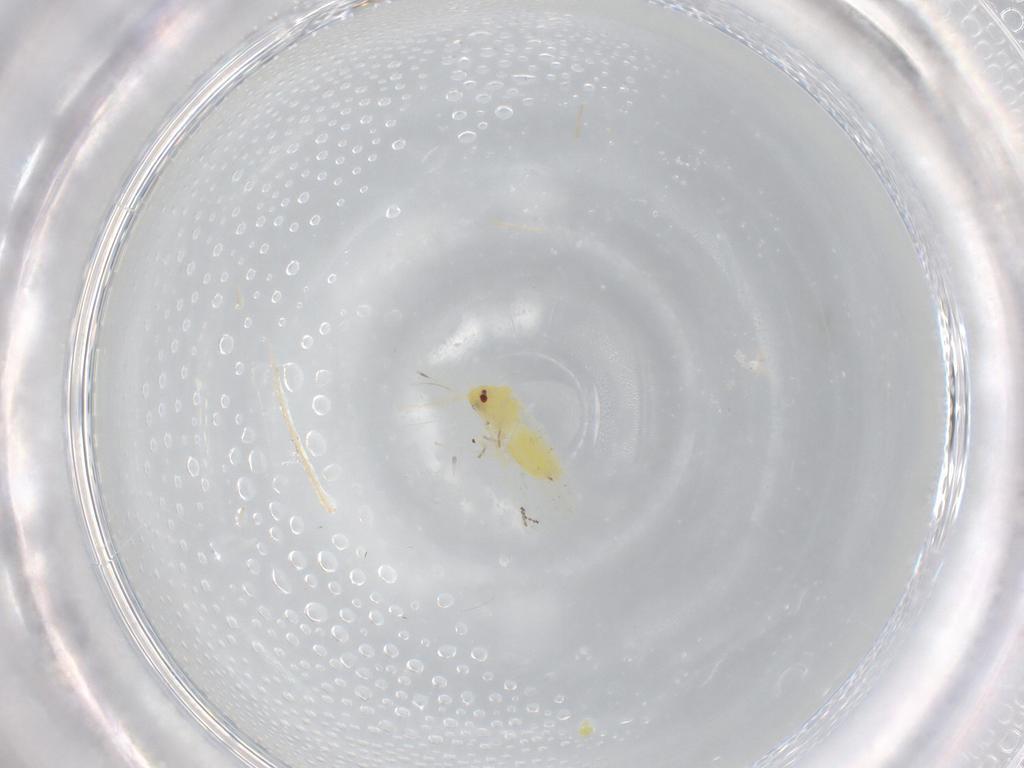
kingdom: Animalia
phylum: Arthropoda
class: Insecta
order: Hemiptera
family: Aleyrodidae
